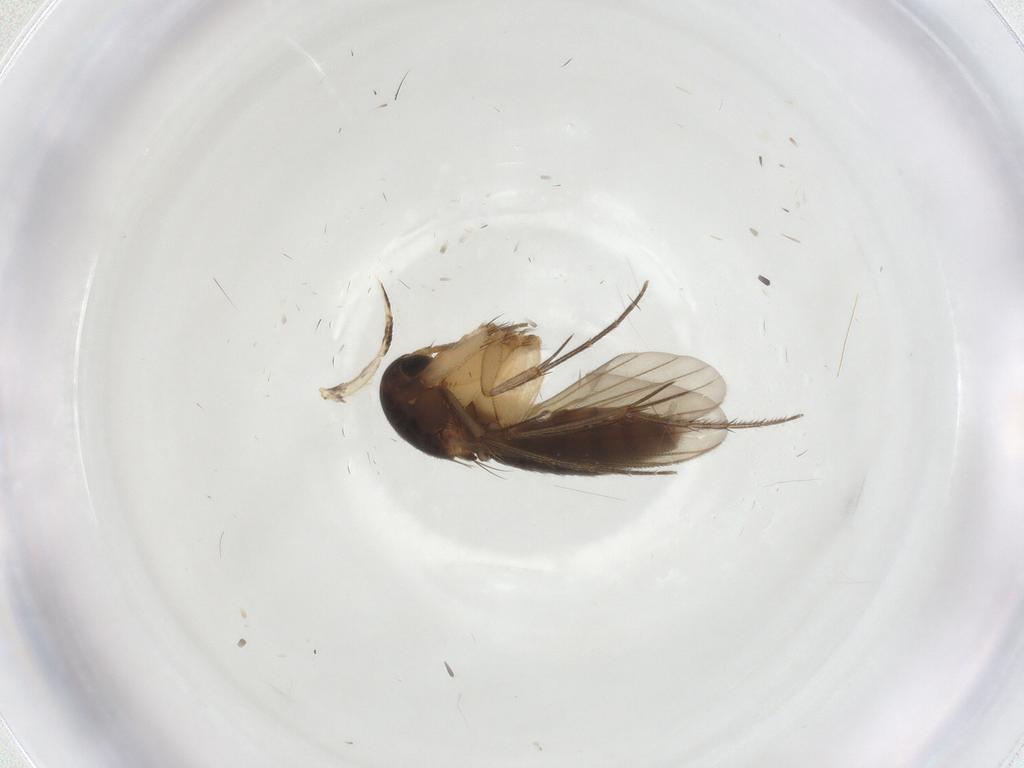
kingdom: Animalia
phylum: Arthropoda
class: Insecta
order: Diptera
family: Mycetophilidae
